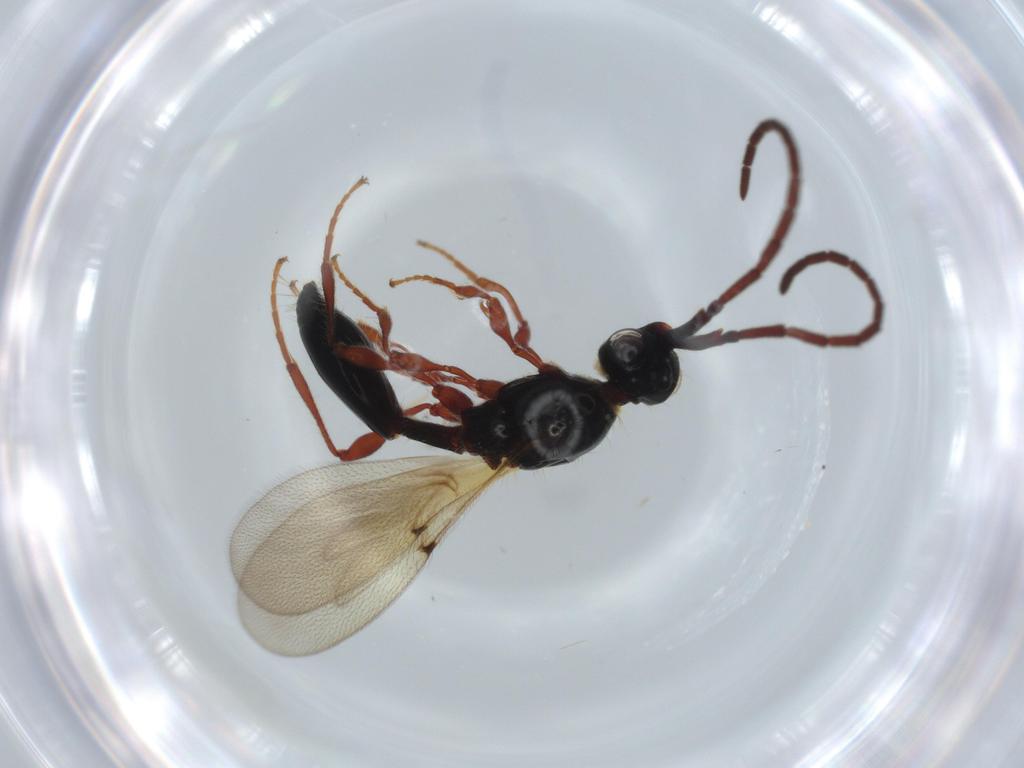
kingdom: Animalia
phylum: Arthropoda
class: Insecta
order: Hymenoptera
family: Diapriidae
